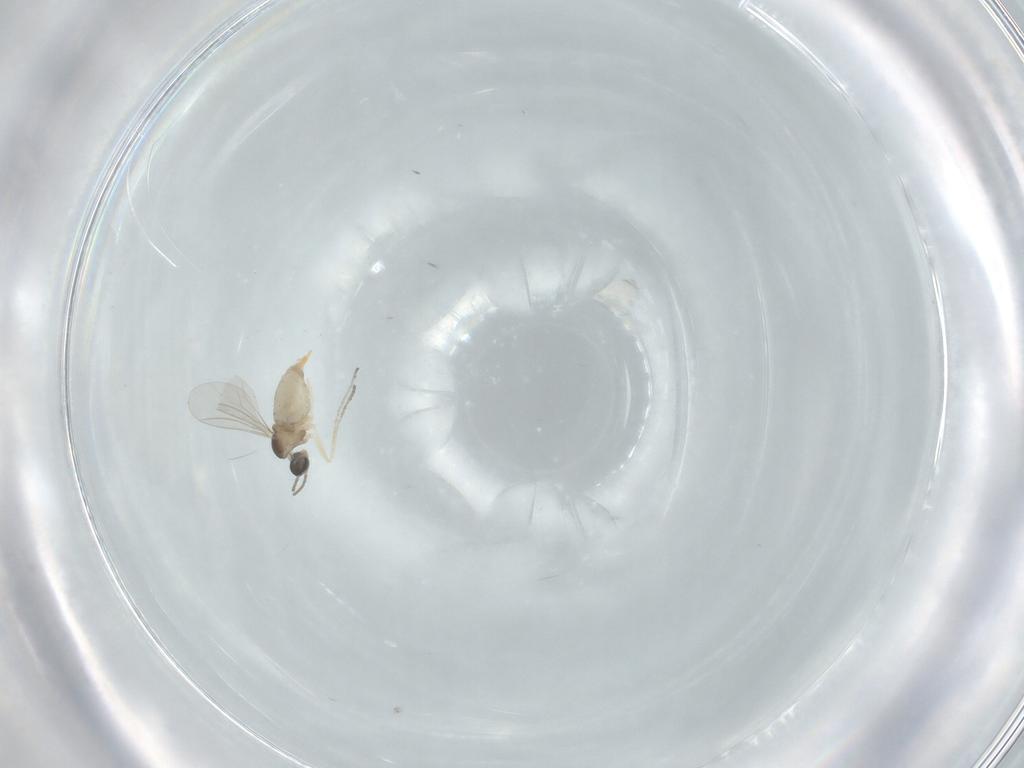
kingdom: Animalia
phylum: Arthropoda
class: Insecta
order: Diptera
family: Cecidomyiidae
